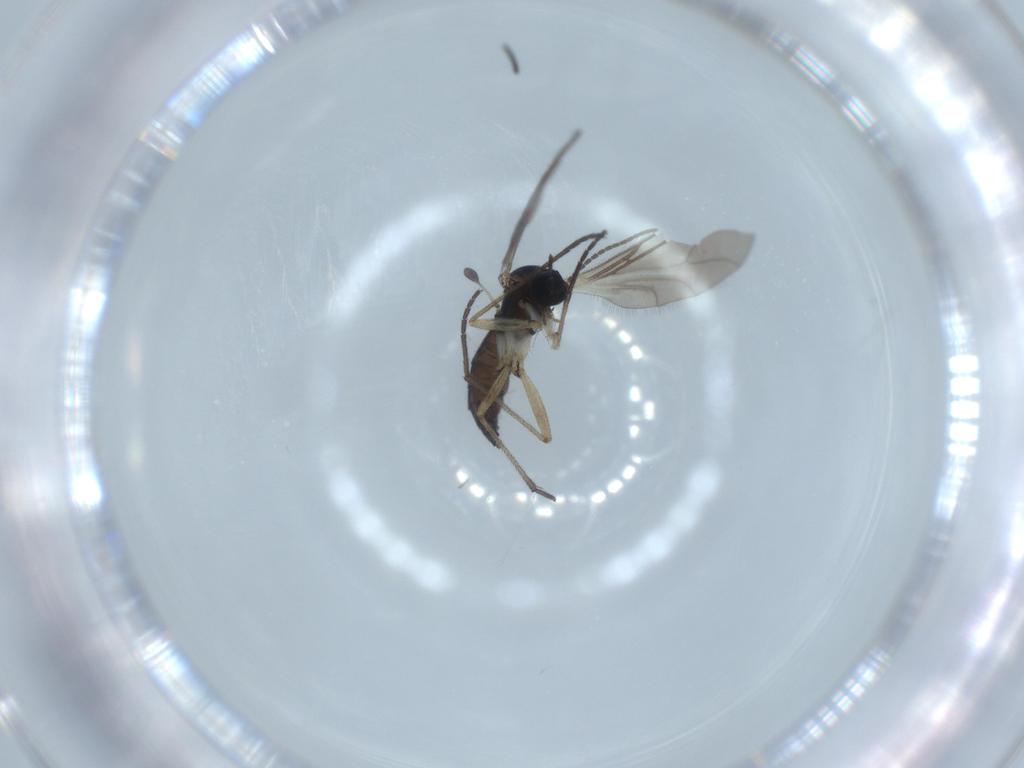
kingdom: Animalia
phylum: Arthropoda
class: Insecta
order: Diptera
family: Sciaridae
